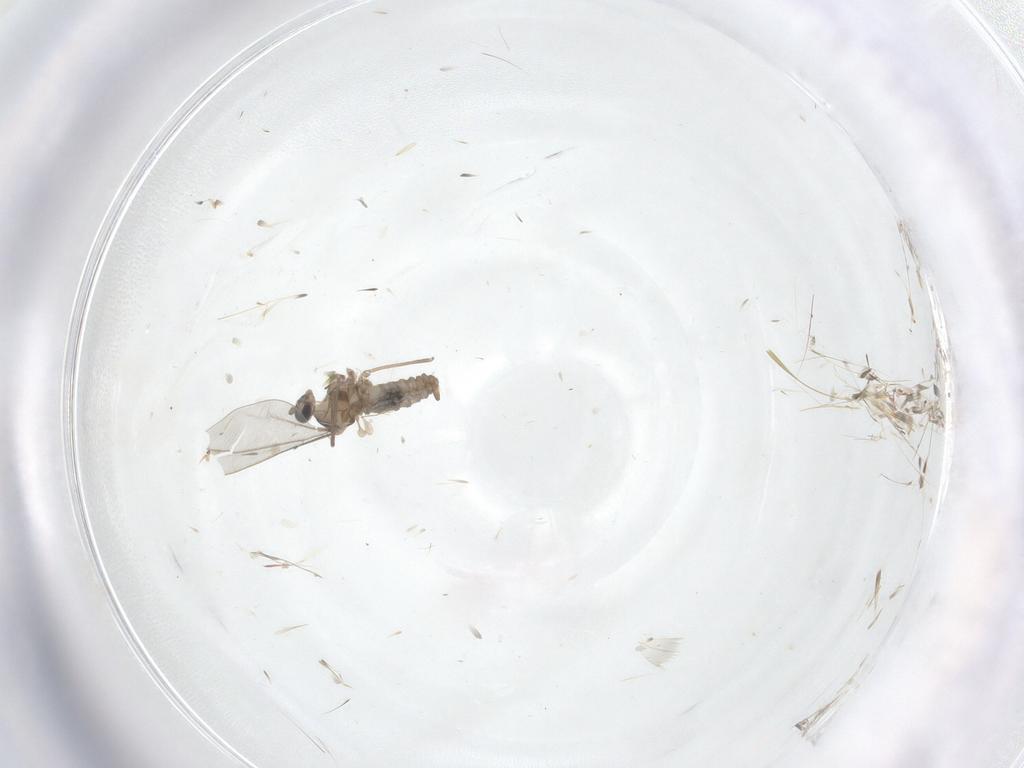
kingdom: Animalia
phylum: Arthropoda
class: Insecta
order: Diptera
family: Cecidomyiidae
